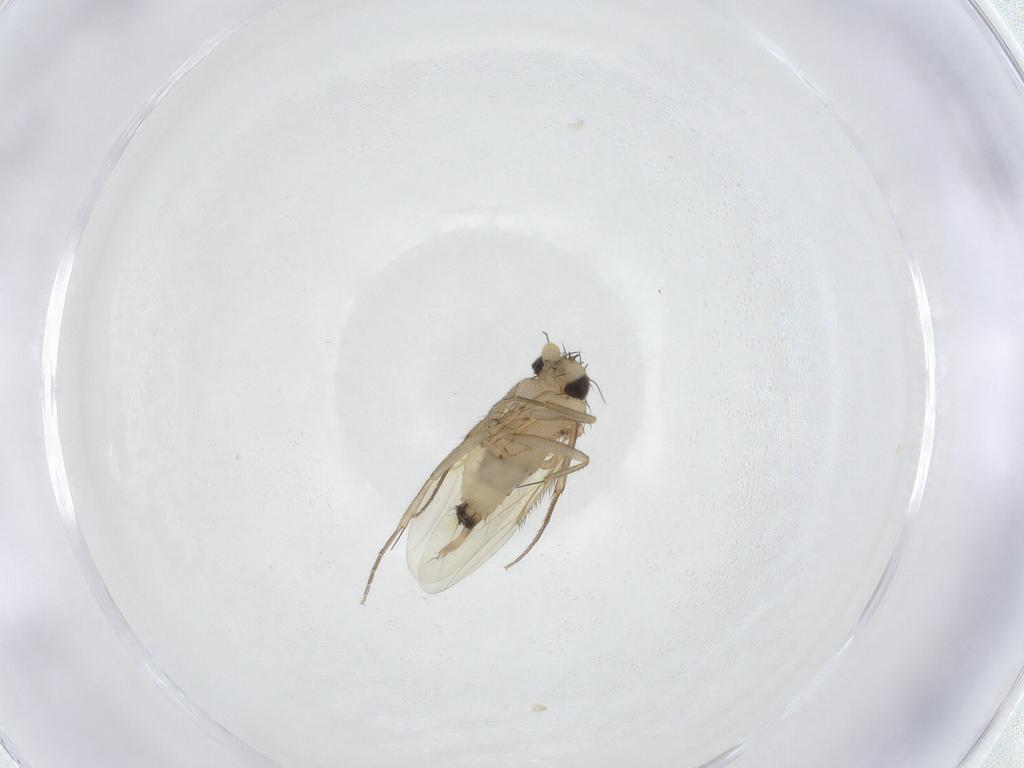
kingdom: Animalia
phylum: Arthropoda
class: Insecta
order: Diptera
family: Phoridae
